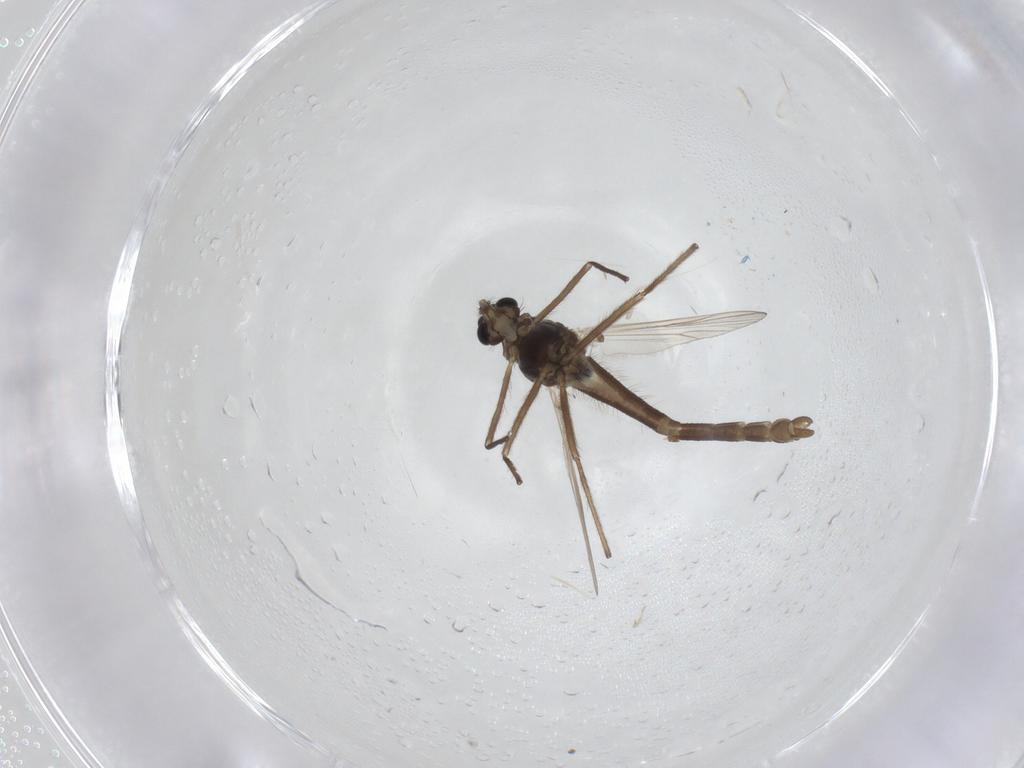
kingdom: Animalia
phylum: Arthropoda
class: Insecta
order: Diptera
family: Chironomidae
